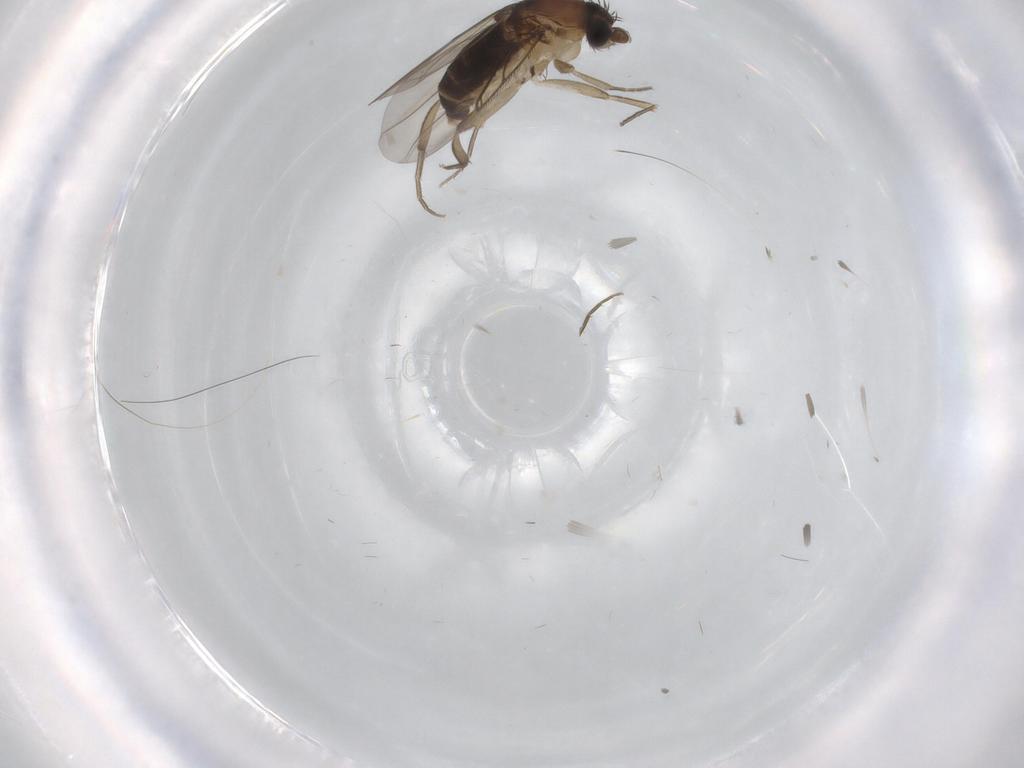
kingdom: Animalia
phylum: Arthropoda
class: Insecta
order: Diptera
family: Phoridae
